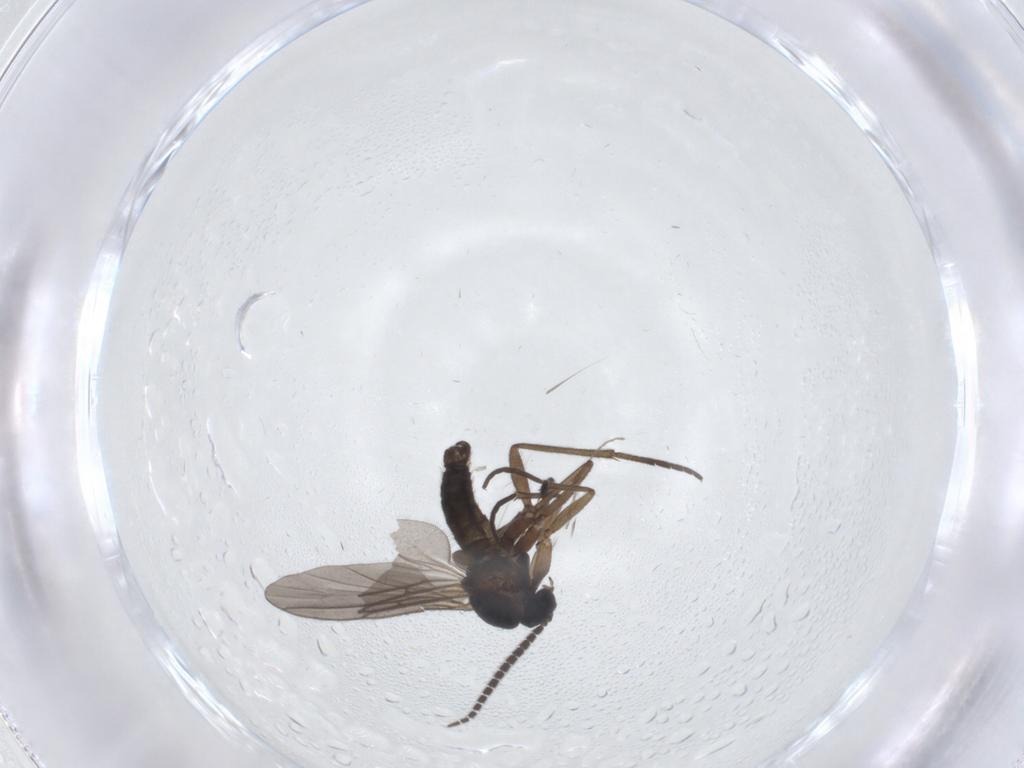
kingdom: Animalia
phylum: Arthropoda
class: Insecta
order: Diptera
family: Sciaridae
